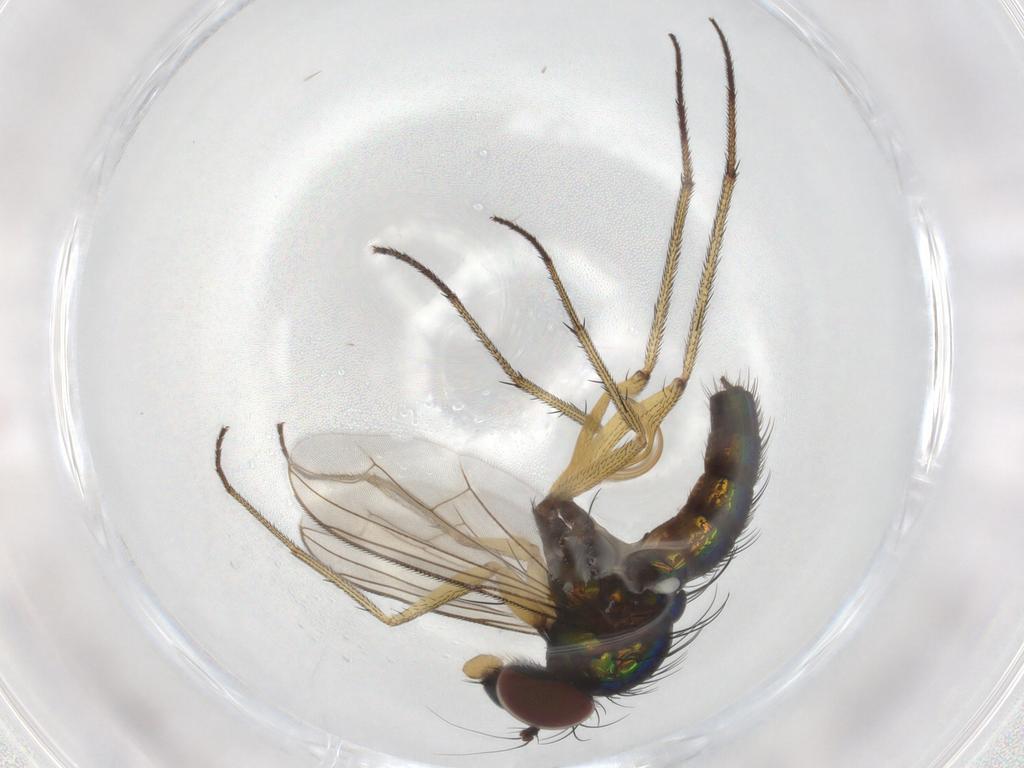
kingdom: Animalia
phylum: Arthropoda
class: Insecta
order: Diptera
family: Dolichopodidae
